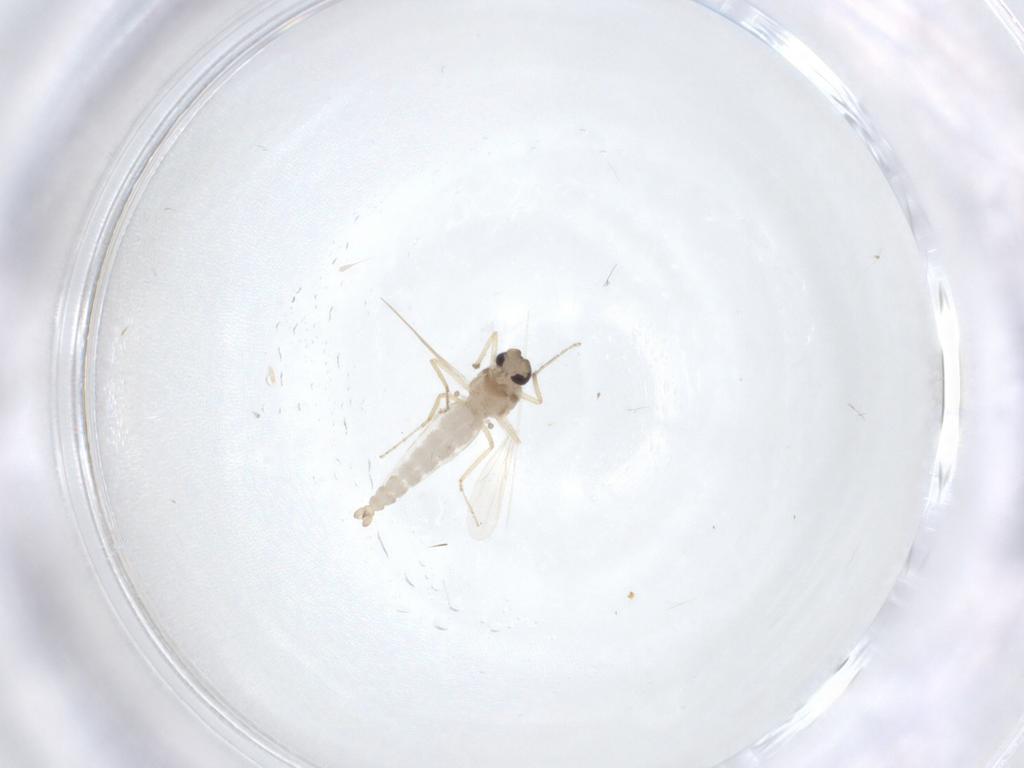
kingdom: Animalia
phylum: Arthropoda
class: Insecta
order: Diptera
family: Ceratopogonidae
